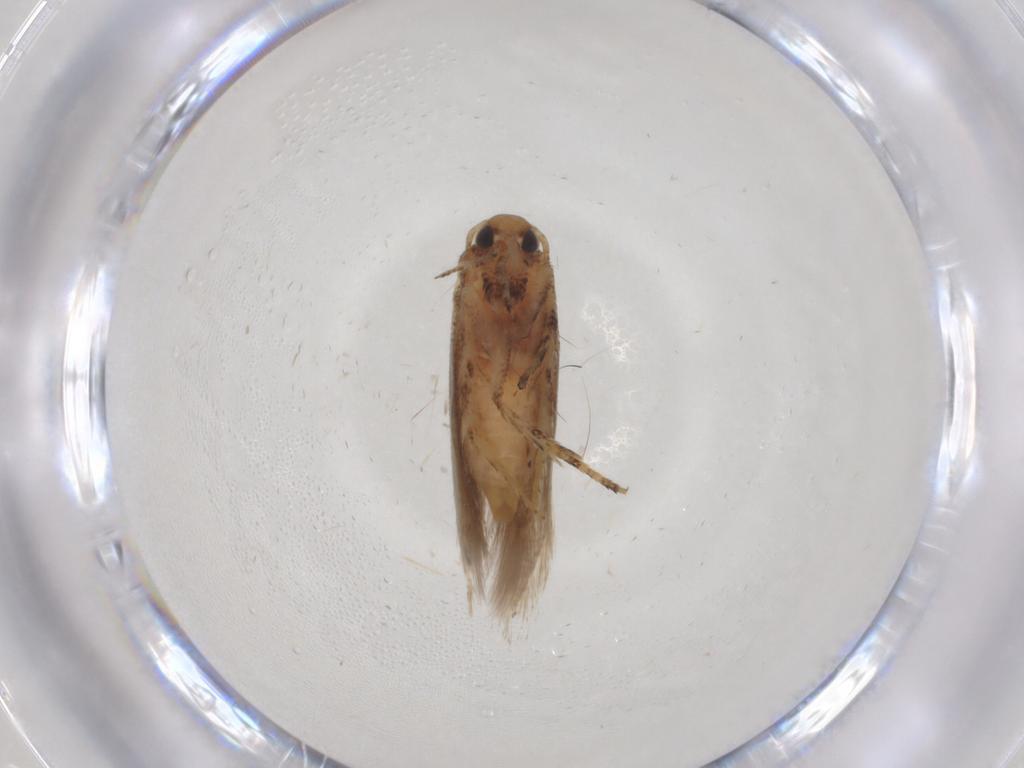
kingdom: Animalia
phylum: Arthropoda
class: Insecta
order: Lepidoptera
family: Gelechiidae
